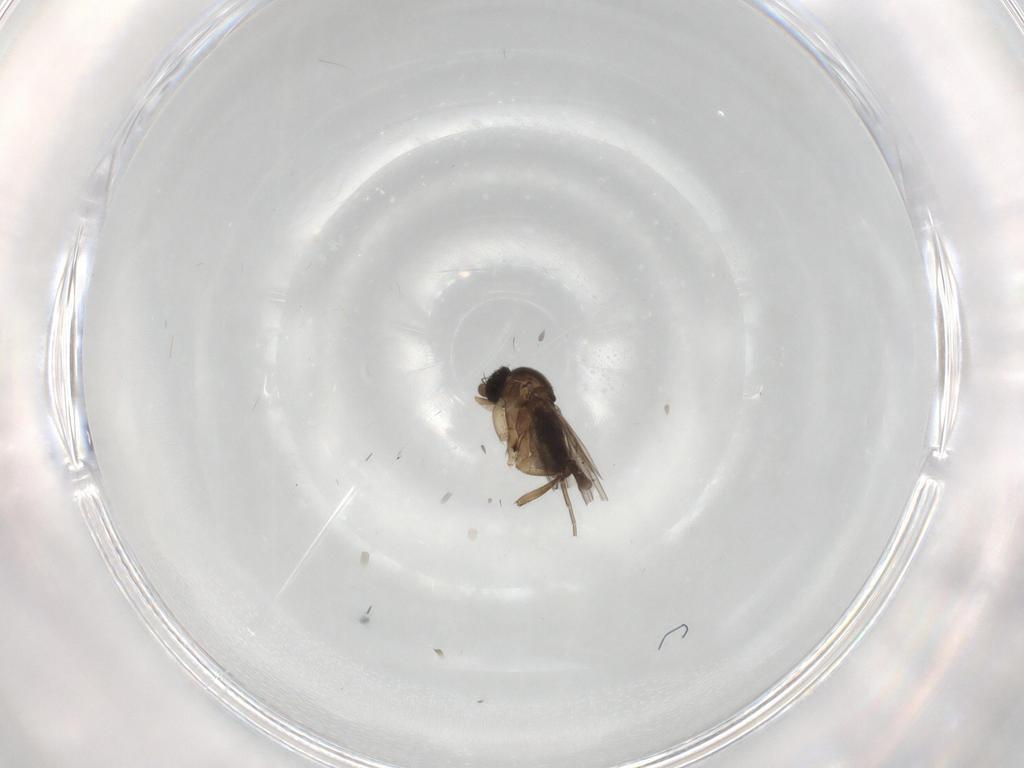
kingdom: Animalia
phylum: Arthropoda
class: Insecta
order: Diptera
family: Phoridae
